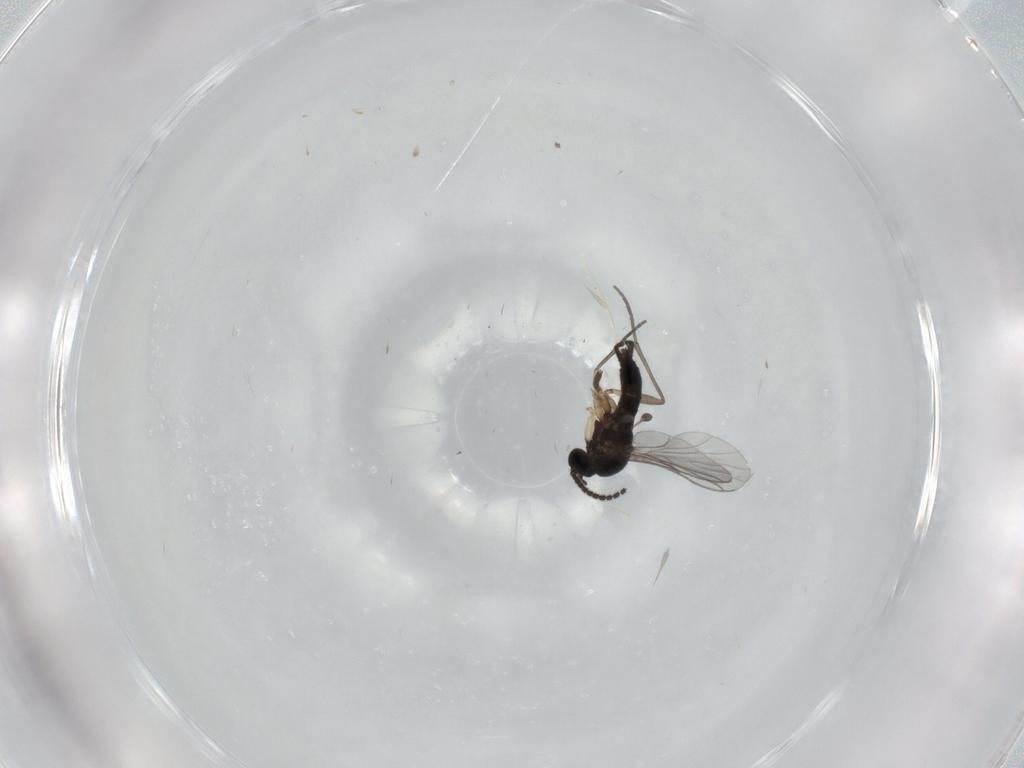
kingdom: Animalia
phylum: Arthropoda
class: Insecta
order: Diptera
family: Sciaridae
